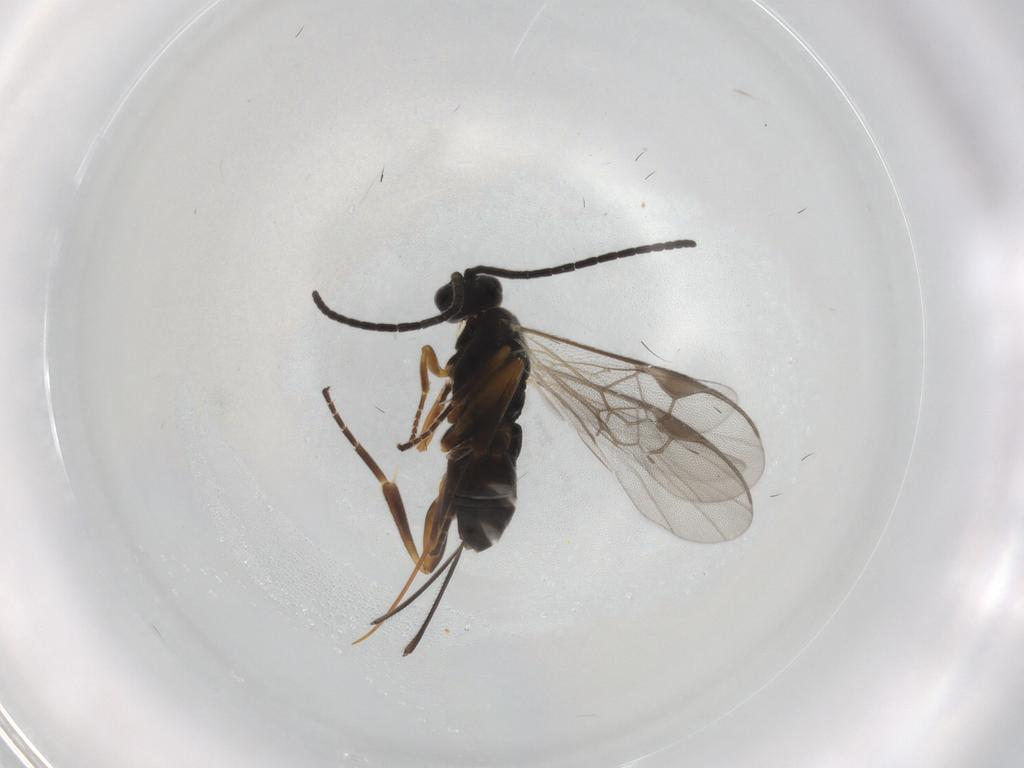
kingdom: Animalia
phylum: Arthropoda
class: Insecta
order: Hymenoptera
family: Braconidae
